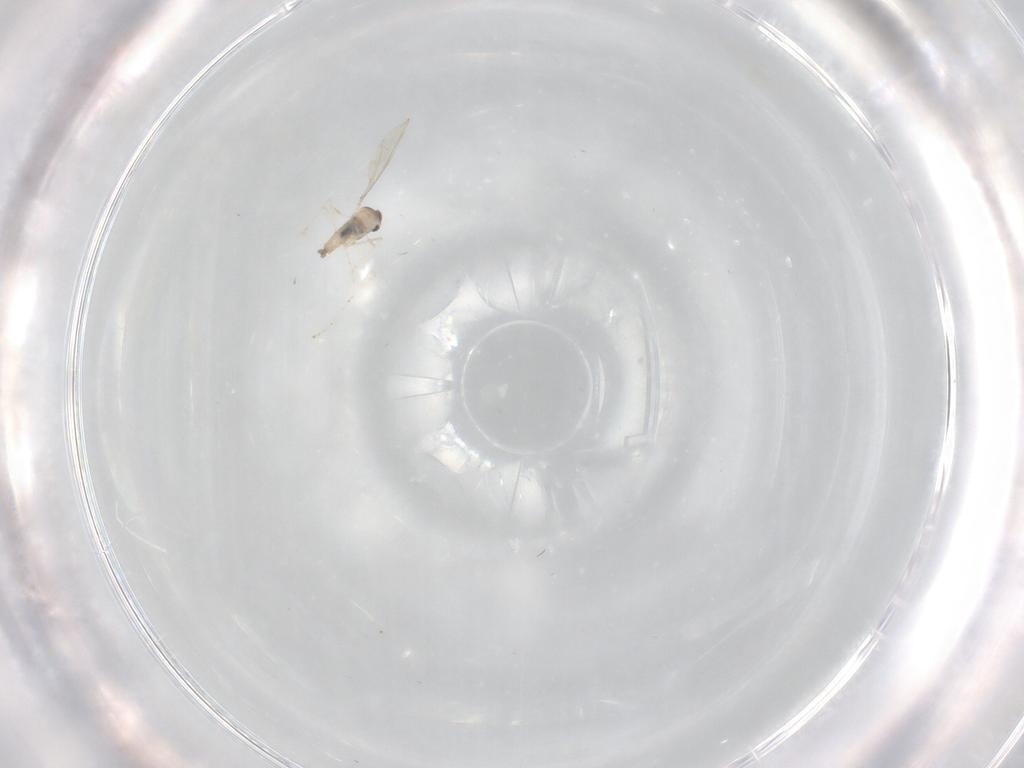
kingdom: Animalia
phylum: Arthropoda
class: Insecta
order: Diptera
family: Cecidomyiidae
